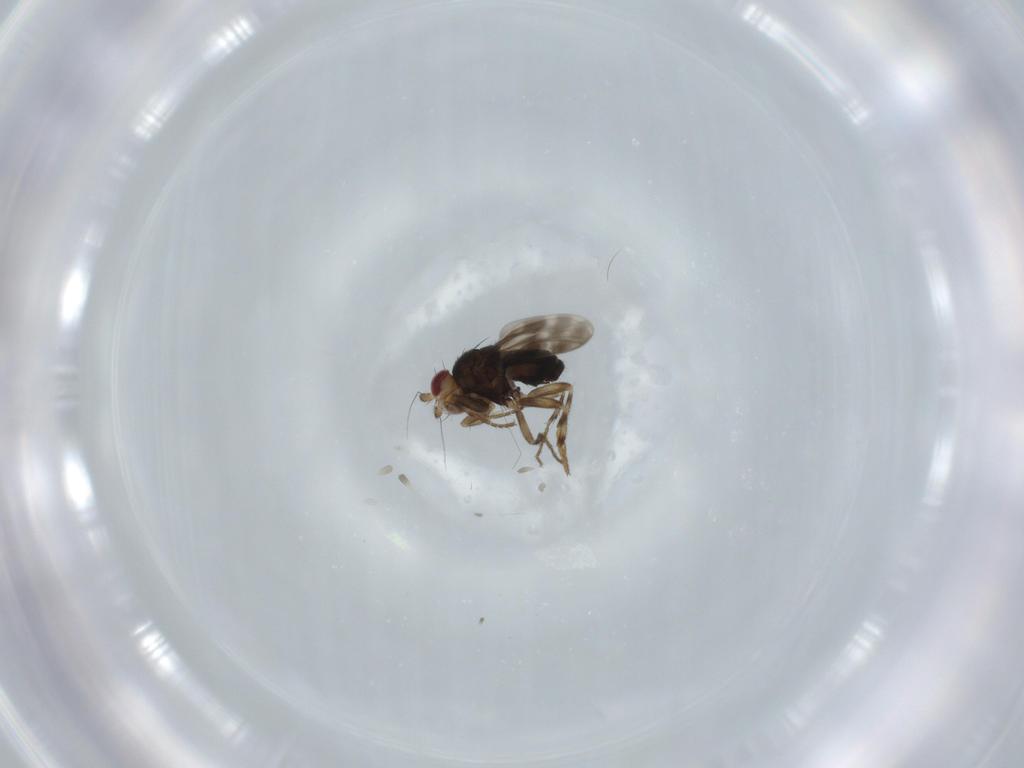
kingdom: Animalia
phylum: Arthropoda
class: Insecta
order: Diptera
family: Sphaeroceridae
